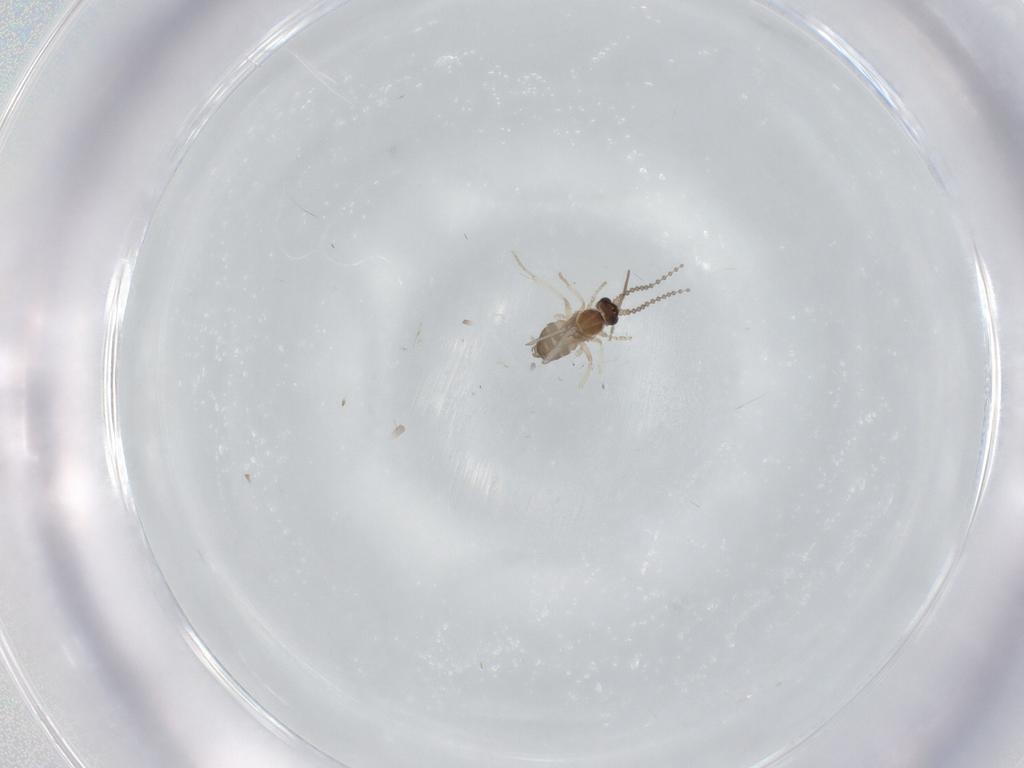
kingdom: Animalia
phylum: Arthropoda
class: Insecta
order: Diptera
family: Cecidomyiidae
